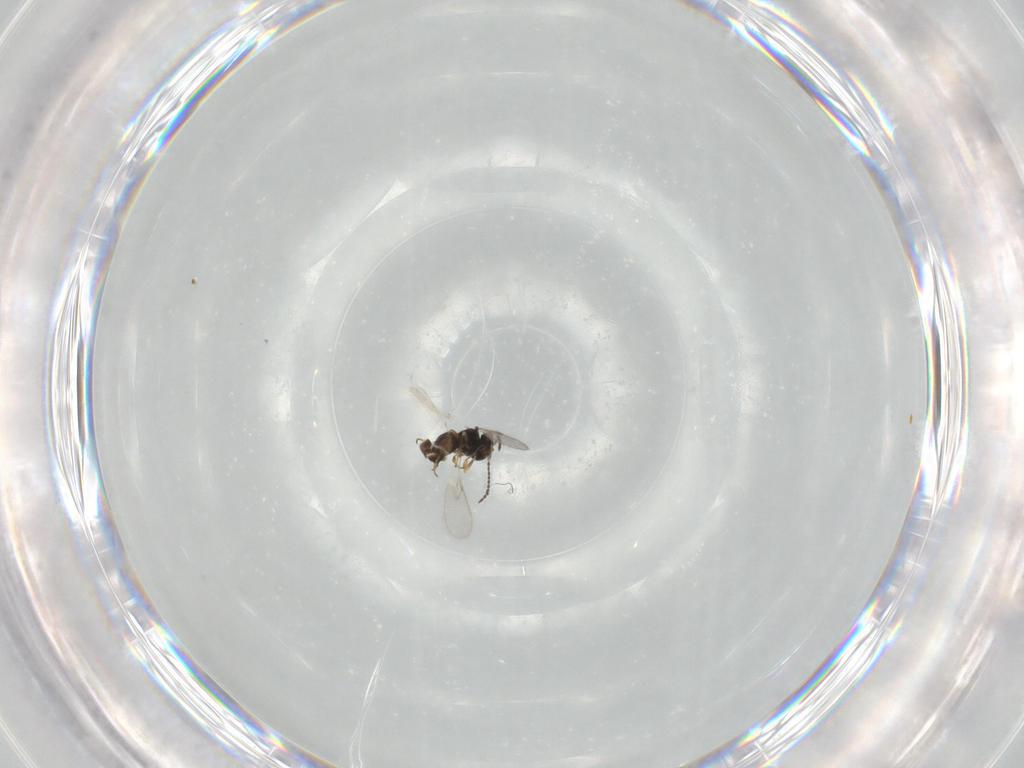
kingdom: Animalia
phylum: Arthropoda
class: Insecta
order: Hymenoptera
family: Scelionidae
